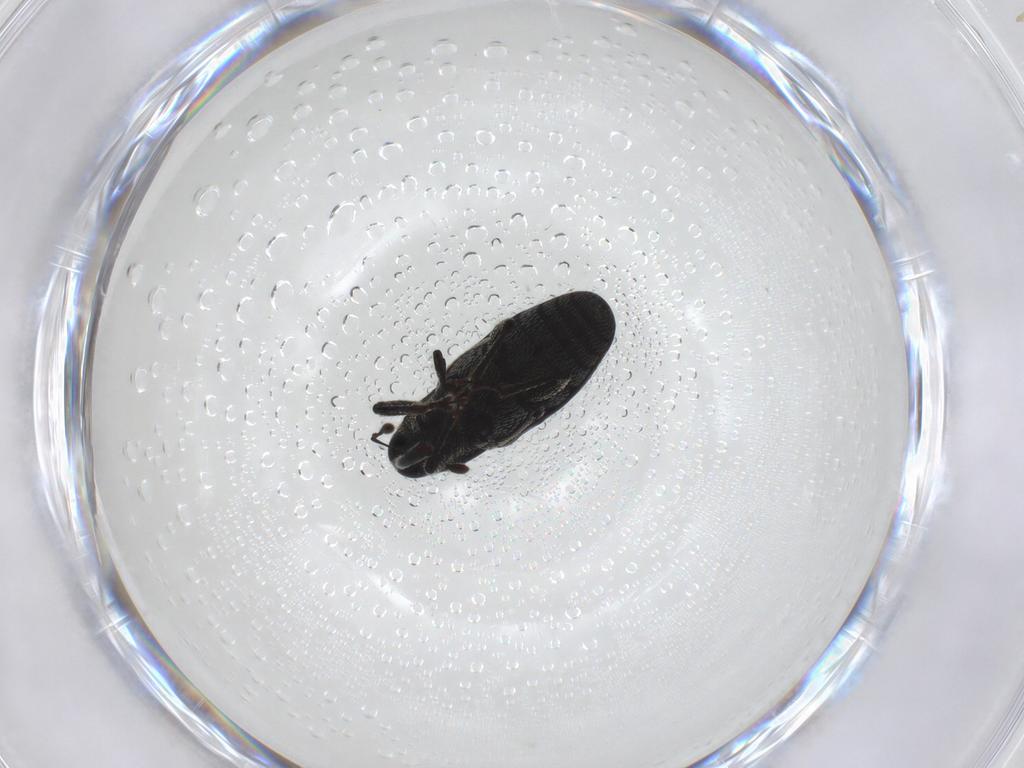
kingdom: Animalia
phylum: Arthropoda
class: Insecta
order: Coleoptera
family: Curculionidae
